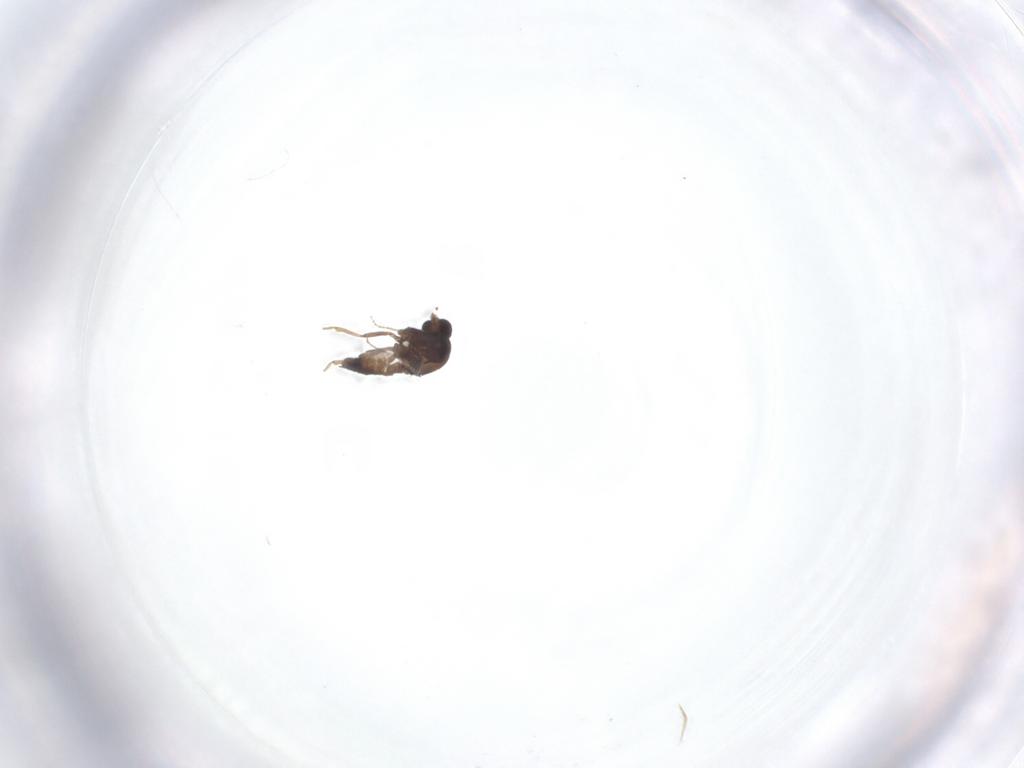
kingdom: Animalia
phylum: Arthropoda
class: Insecta
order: Diptera
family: Ceratopogonidae
